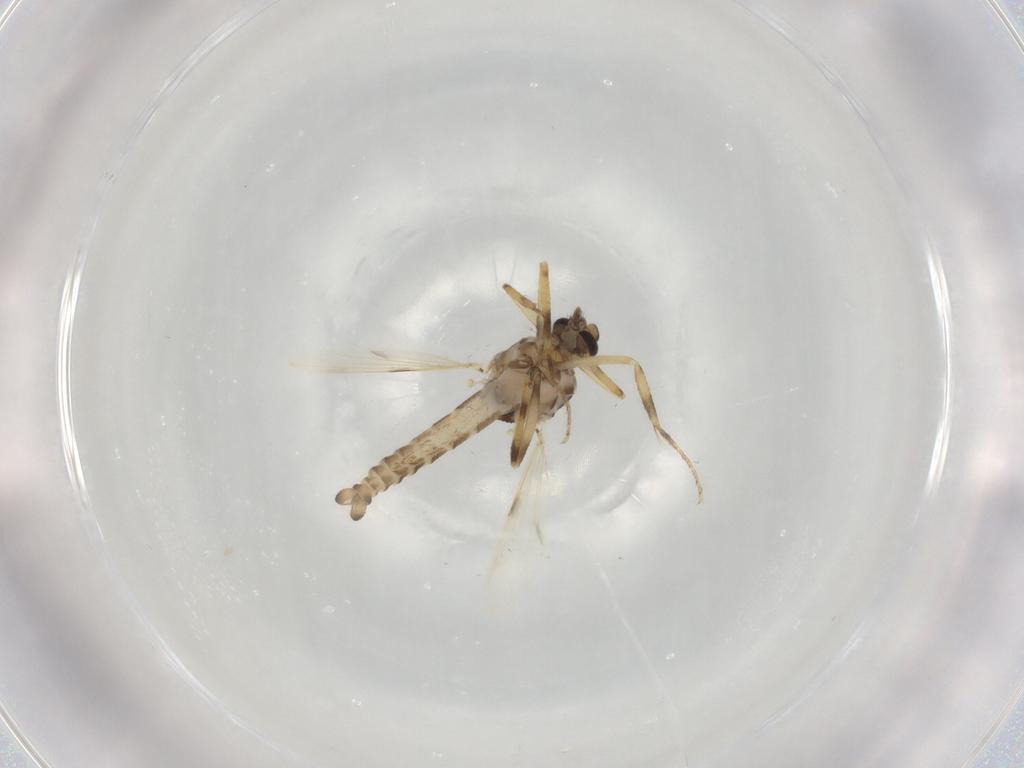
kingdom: Animalia
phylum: Arthropoda
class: Insecta
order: Diptera
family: Ceratopogonidae
